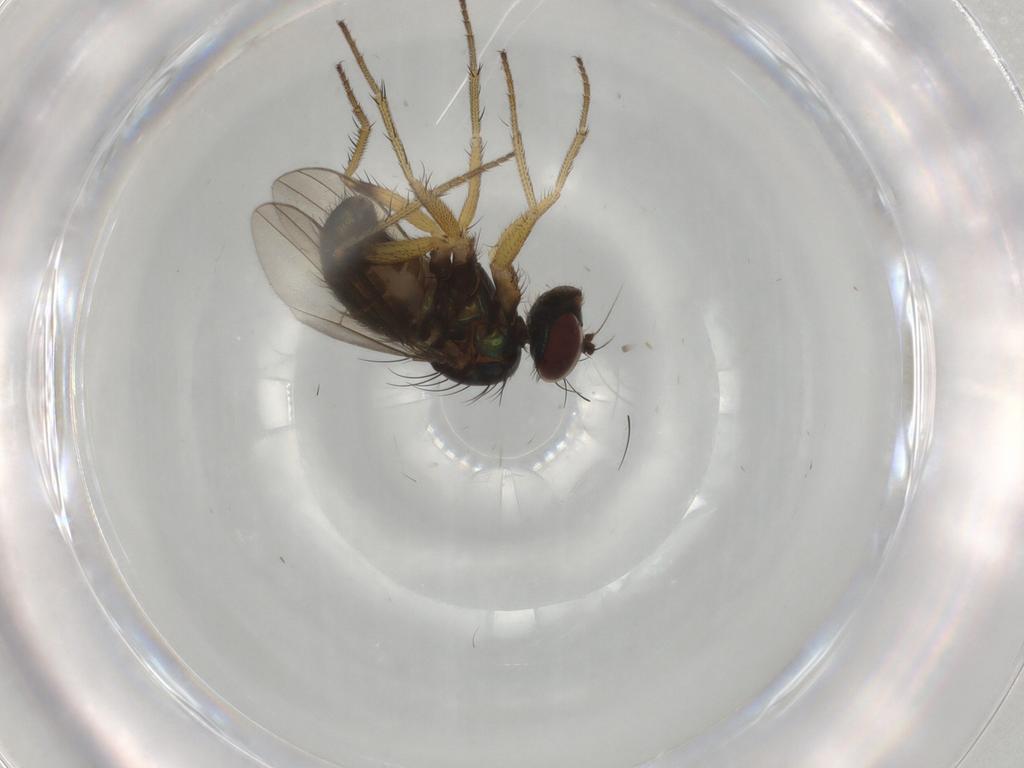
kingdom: Animalia
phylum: Arthropoda
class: Insecta
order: Diptera
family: Dolichopodidae
